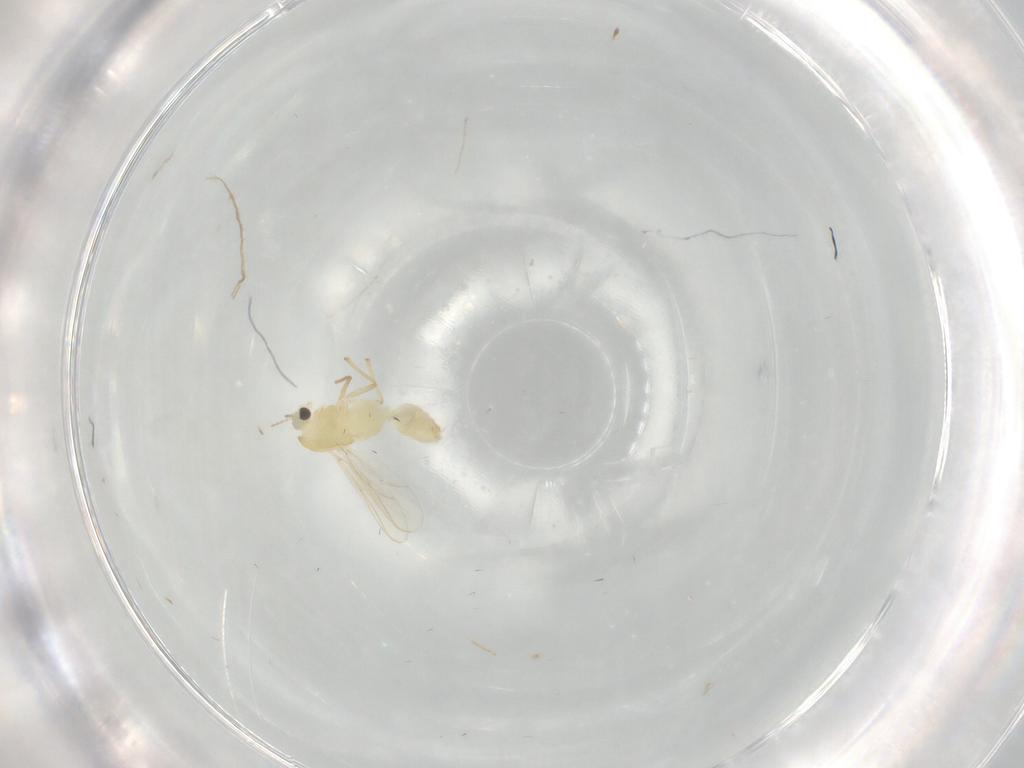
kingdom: Animalia
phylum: Arthropoda
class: Insecta
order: Diptera
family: Chironomidae
